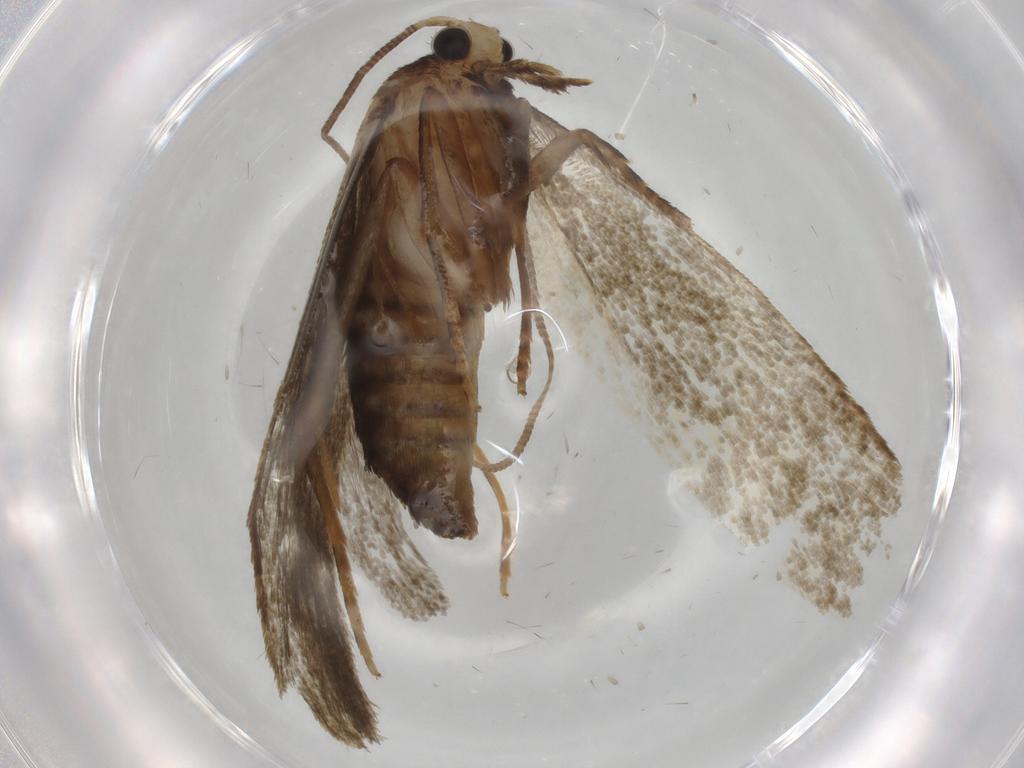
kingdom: Animalia
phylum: Arthropoda
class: Insecta
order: Lepidoptera
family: Tineidae
